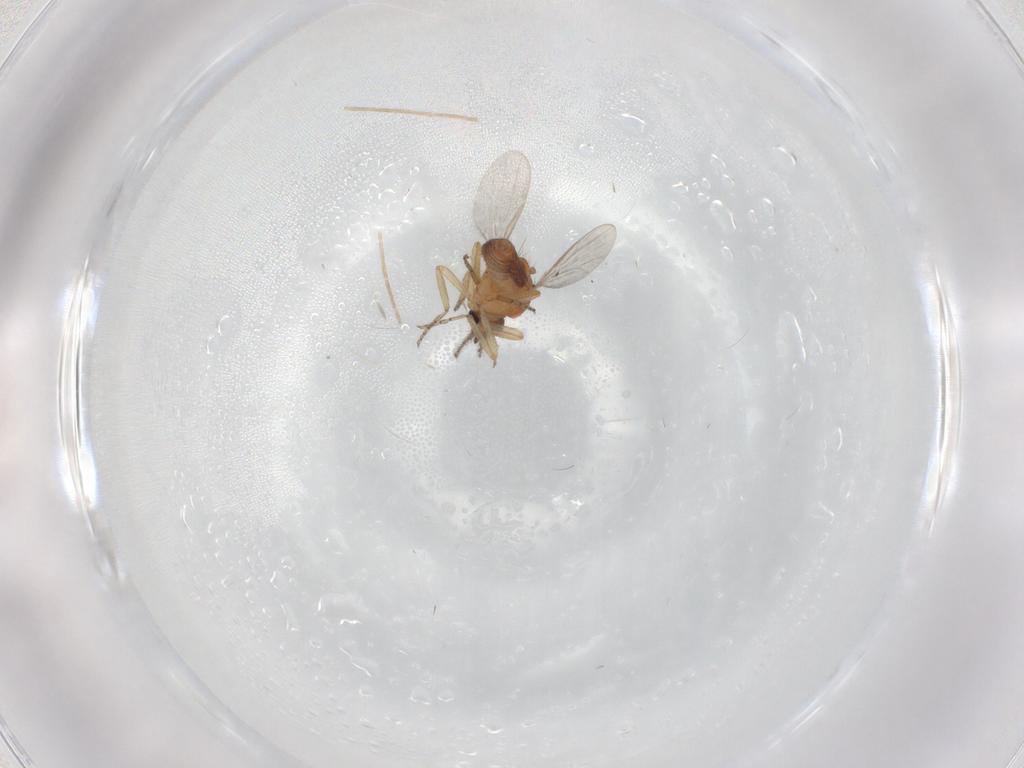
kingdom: Animalia
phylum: Arthropoda
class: Insecta
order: Diptera
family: Ceratopogonidae
